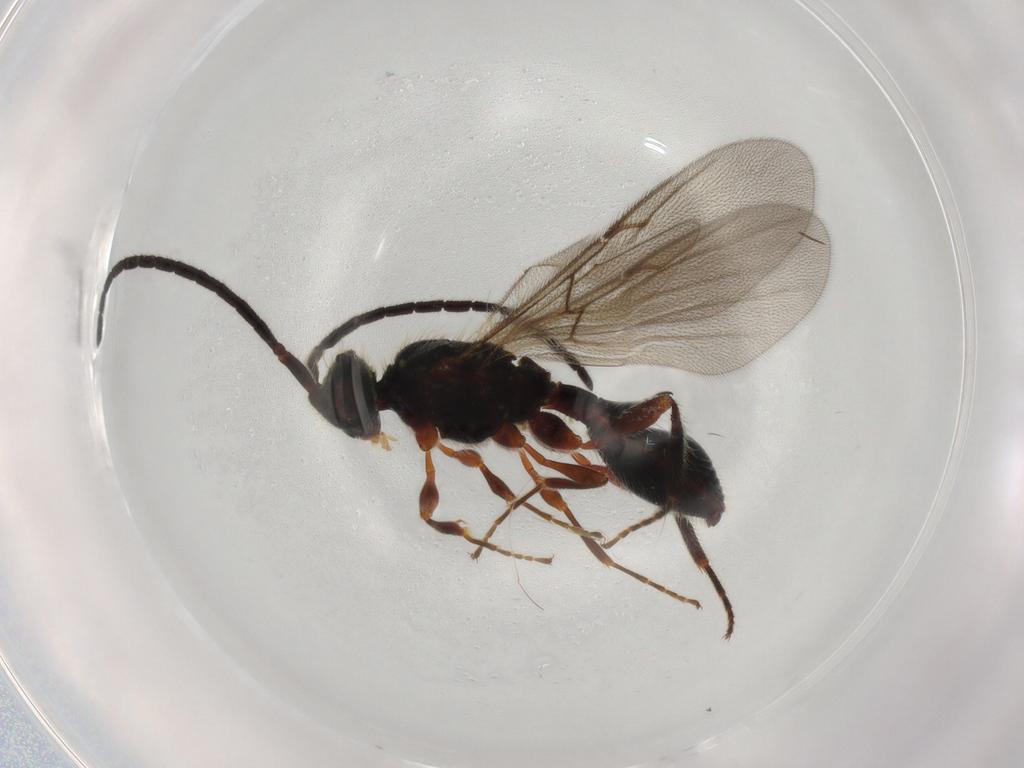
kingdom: Animalia
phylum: Arthropoda
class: Insecta
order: Hymenoptera
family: Diapriidae
